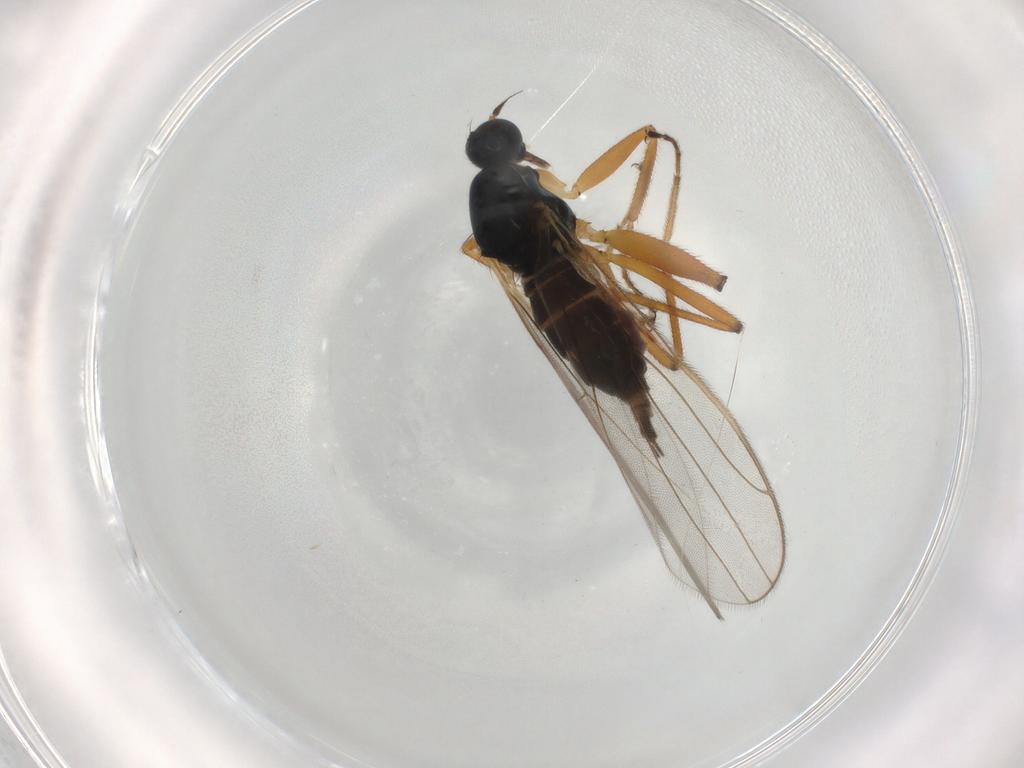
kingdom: Animalia
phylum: Arthropoda
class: Insecta
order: Diptera
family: Hybotidae
